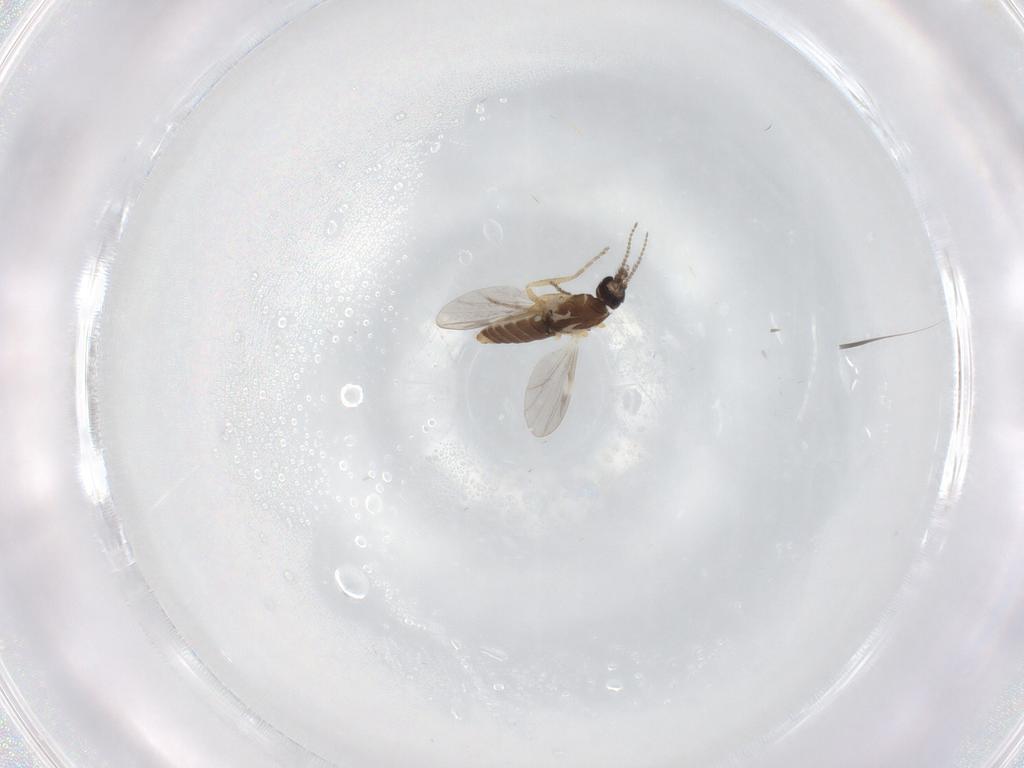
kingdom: Animalia
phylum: Arthropoda
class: Insecta
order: Diptera
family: Ceratopogonidae
